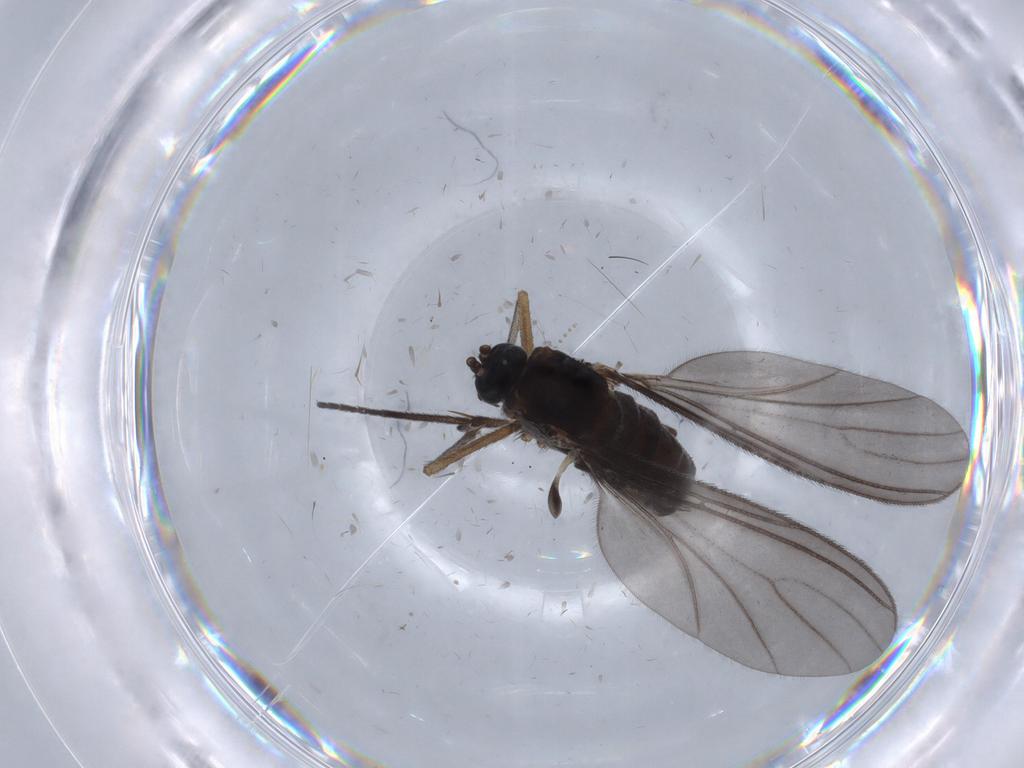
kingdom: Animalia
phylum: Arthropoda
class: Insecta
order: Diptera
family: Sciaridae
